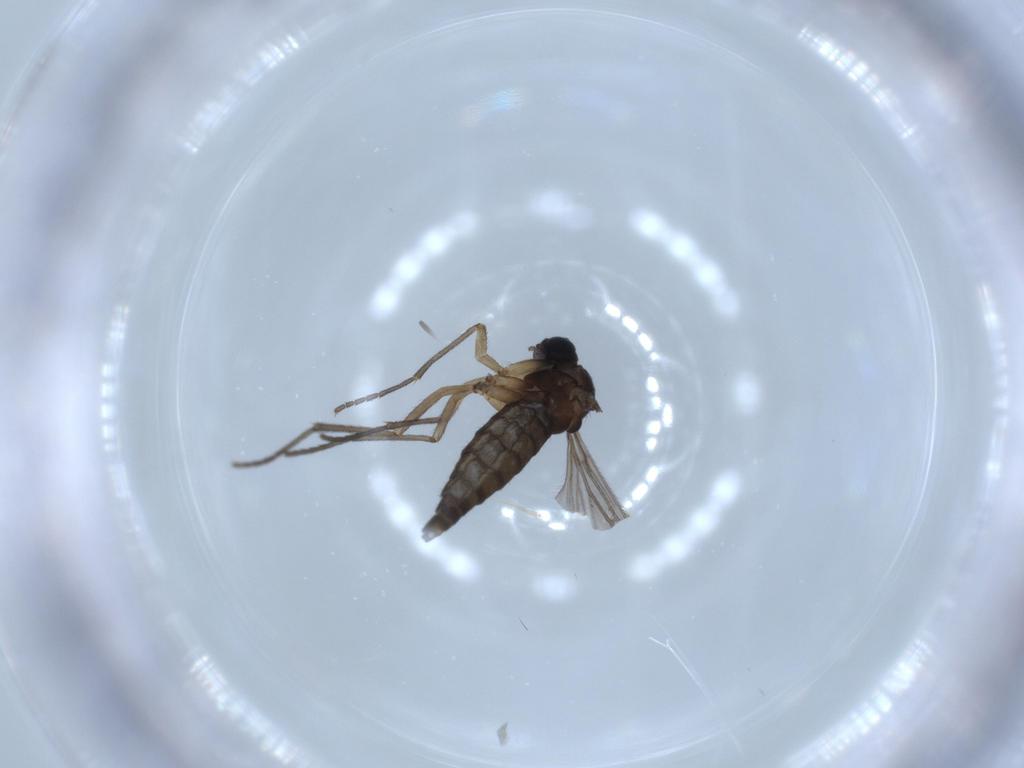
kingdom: Animalia
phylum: Arthropoda
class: Insecta
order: Diptera
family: Sciaridae
